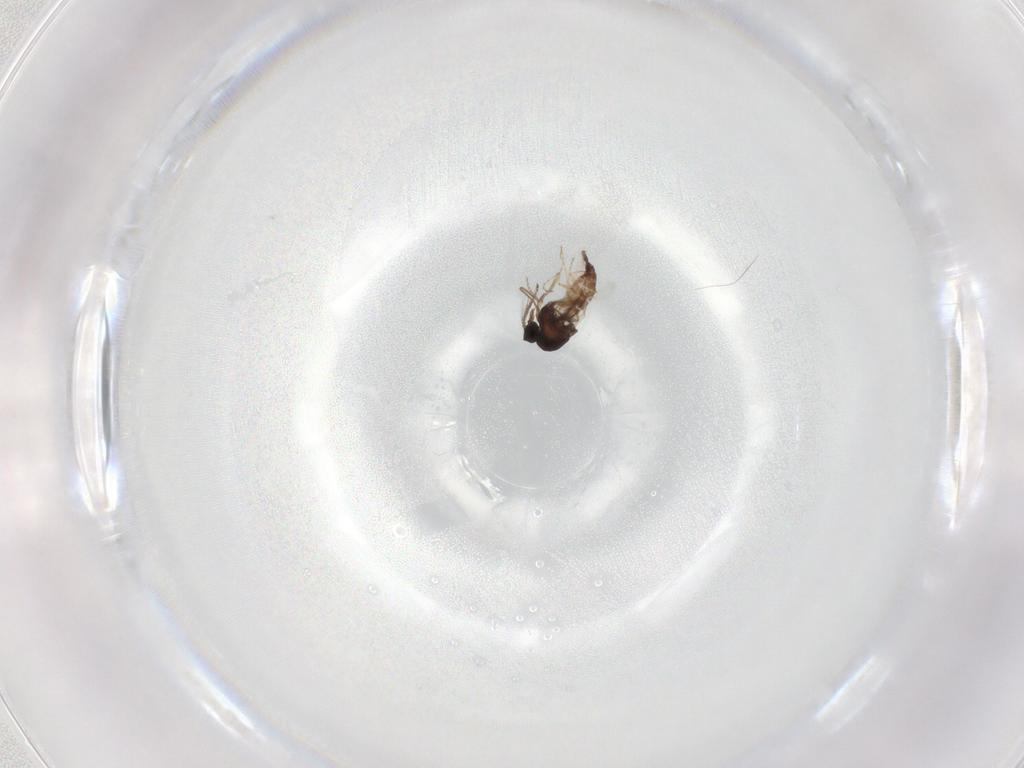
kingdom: Animalia
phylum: Arthropoda
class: Insecta
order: Diptera
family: Ceratopogonidae
